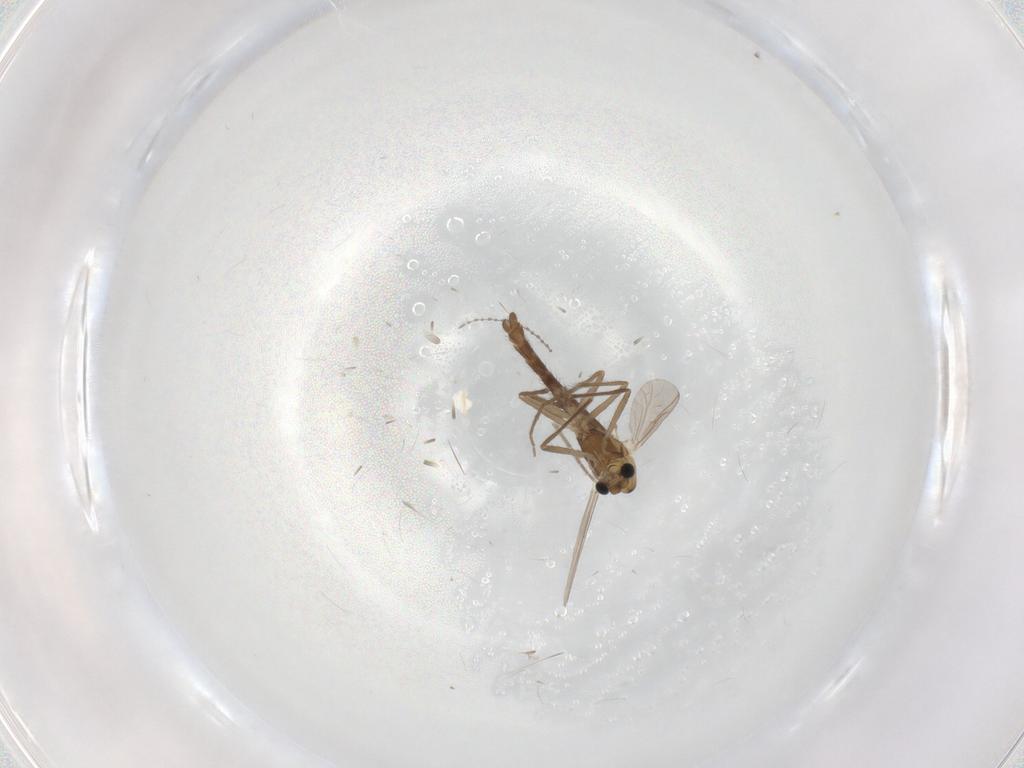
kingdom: Animalia
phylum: Arthropoda
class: Insecta
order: Diptera
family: Chironomidae
